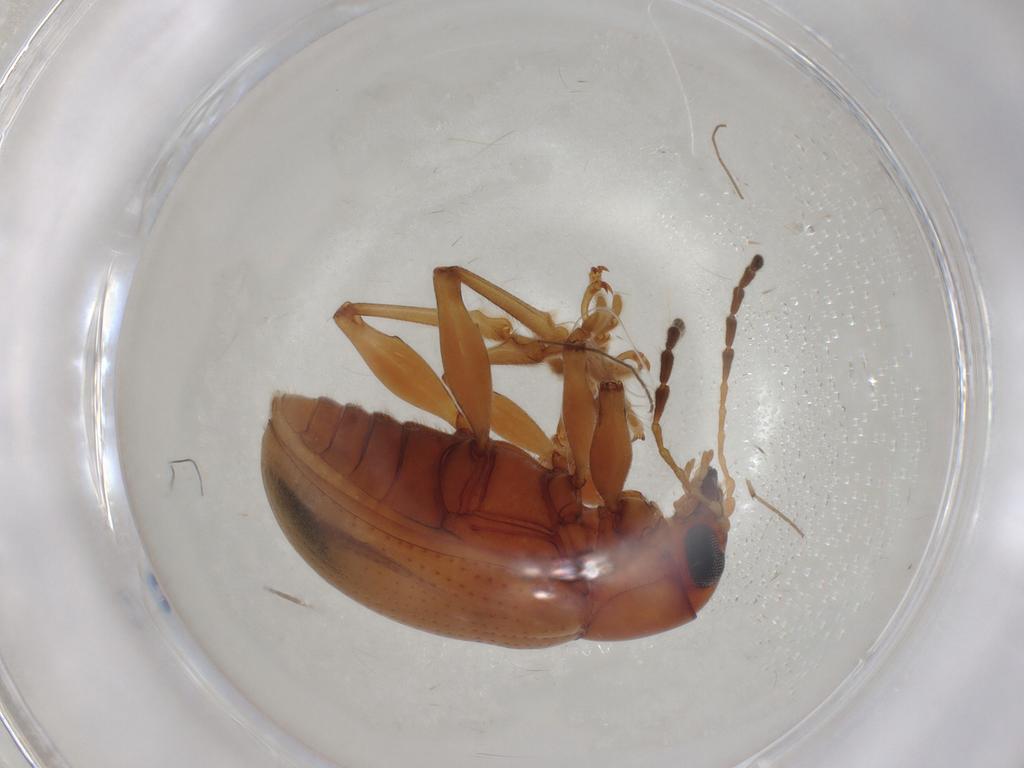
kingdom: Animalia
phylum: Arthropoda
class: Insecta
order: Coleoptera
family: Chrysomelidae
